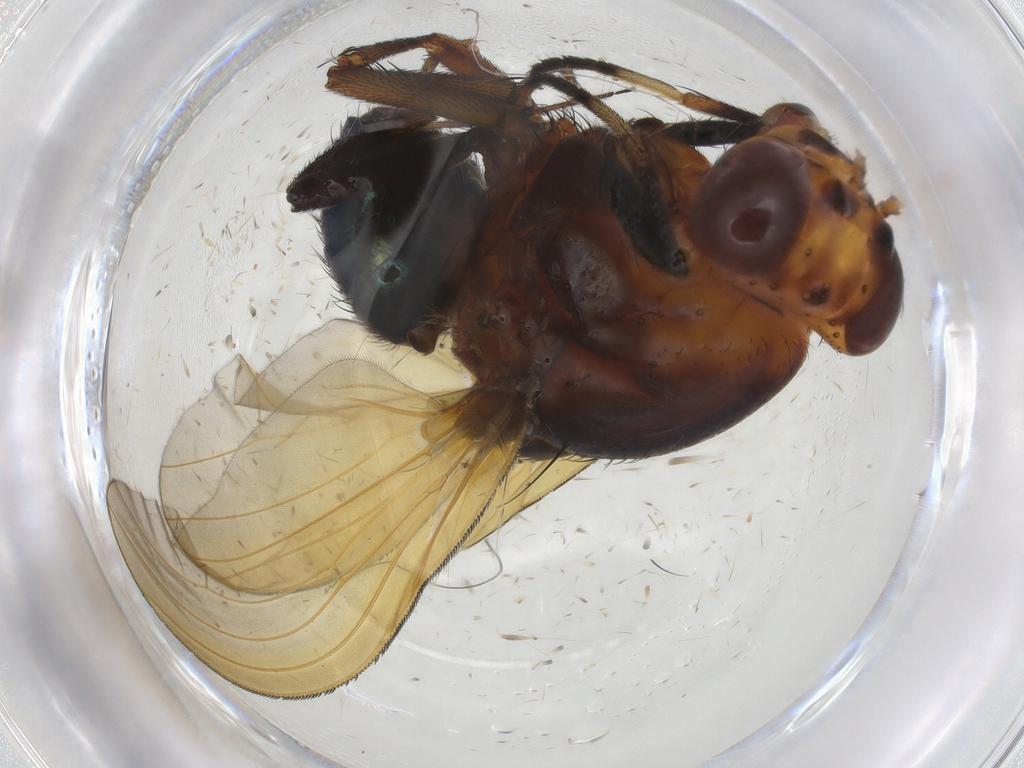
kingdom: Animalia
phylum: Arthropoda
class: Insecta
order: Diptera
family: Lauxaniidae
